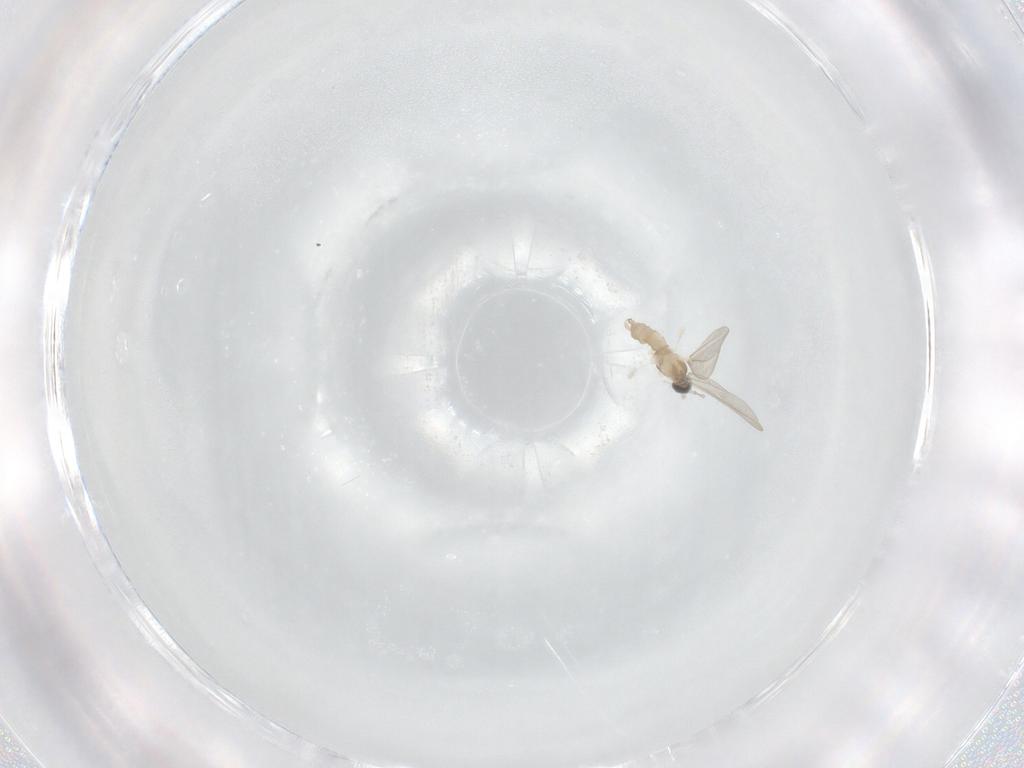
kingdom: Animalia
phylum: Arthropoda
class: Insecta
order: Diptera
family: Cecidomyiidae
